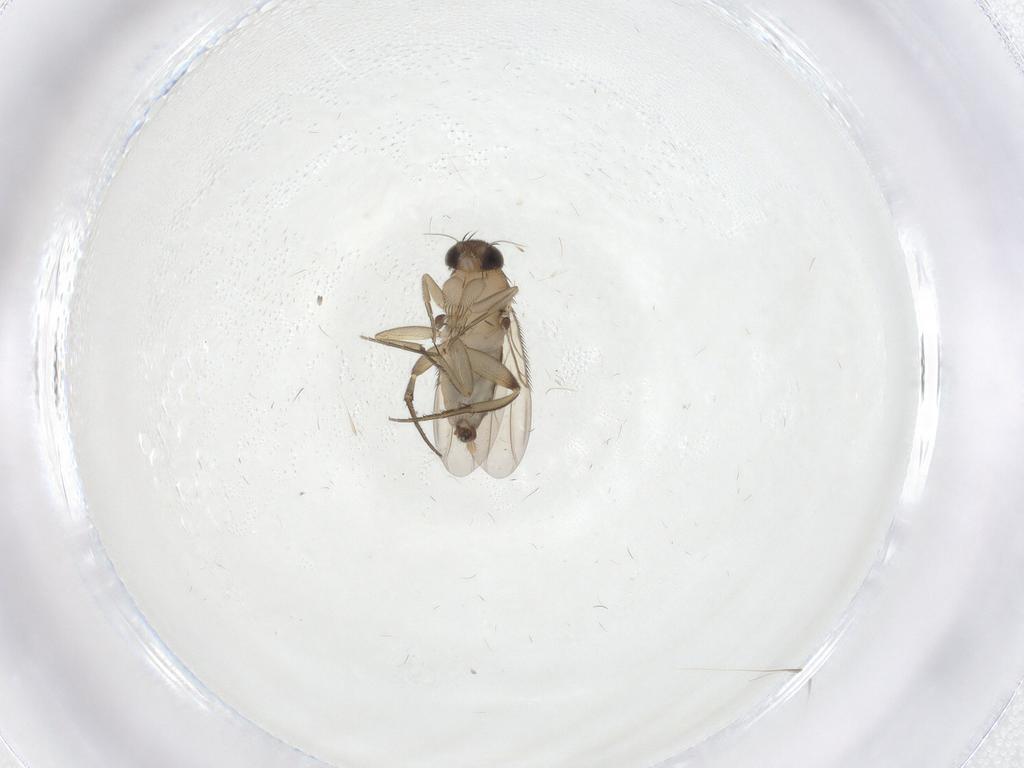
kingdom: Animalia
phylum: Arthropoda
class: Insecta
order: Diptera
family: Phoridae
